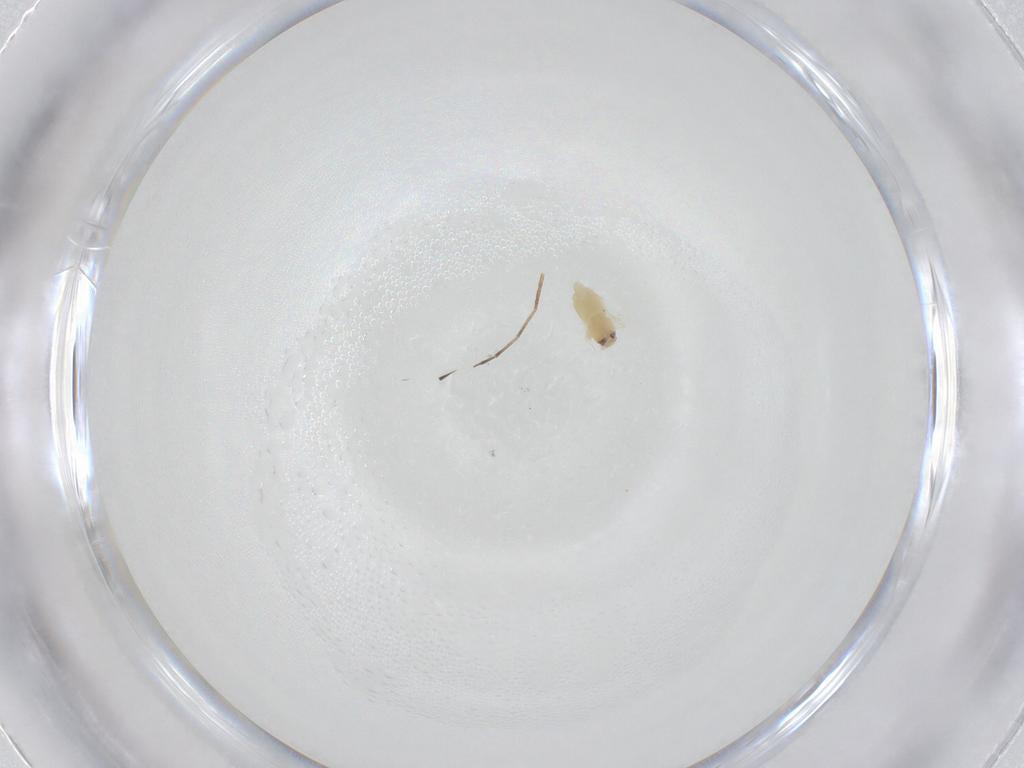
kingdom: Animalia
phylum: Arthropoda
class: Insecta
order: Hemiptera
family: Aleyrodidae
